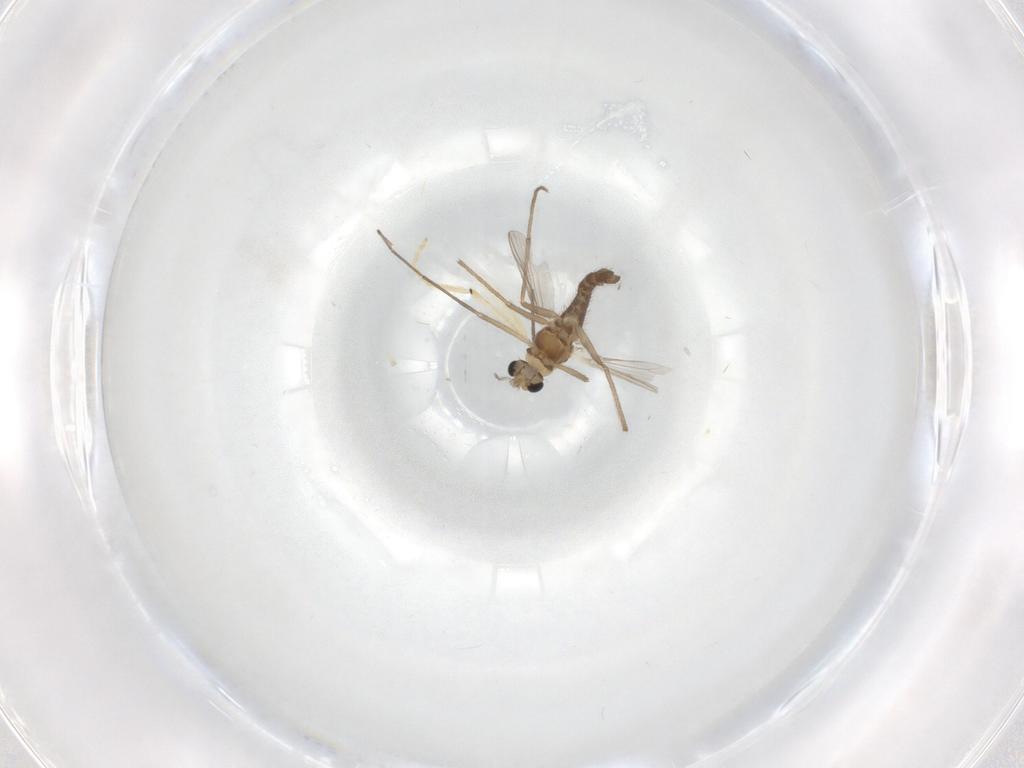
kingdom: Animalia
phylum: Arthropoda
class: Insecta
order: Diptera
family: Chironomidae
